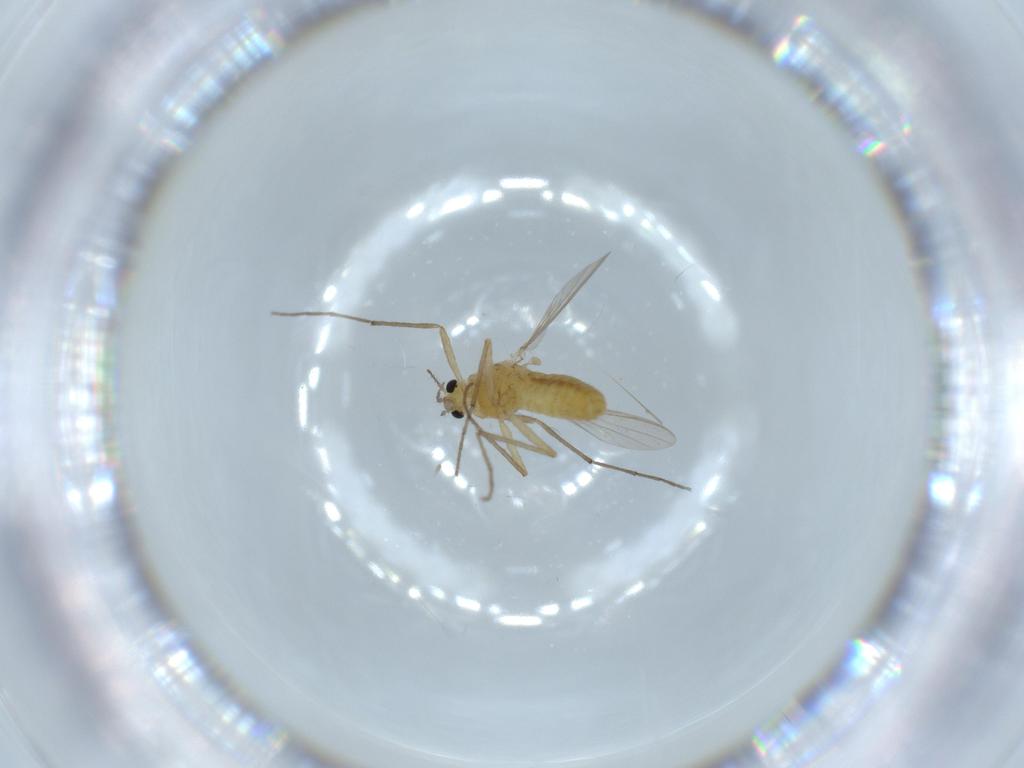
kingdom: Animalia
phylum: Arthropoda
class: Insecta
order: Diptera
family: Chironomidae
